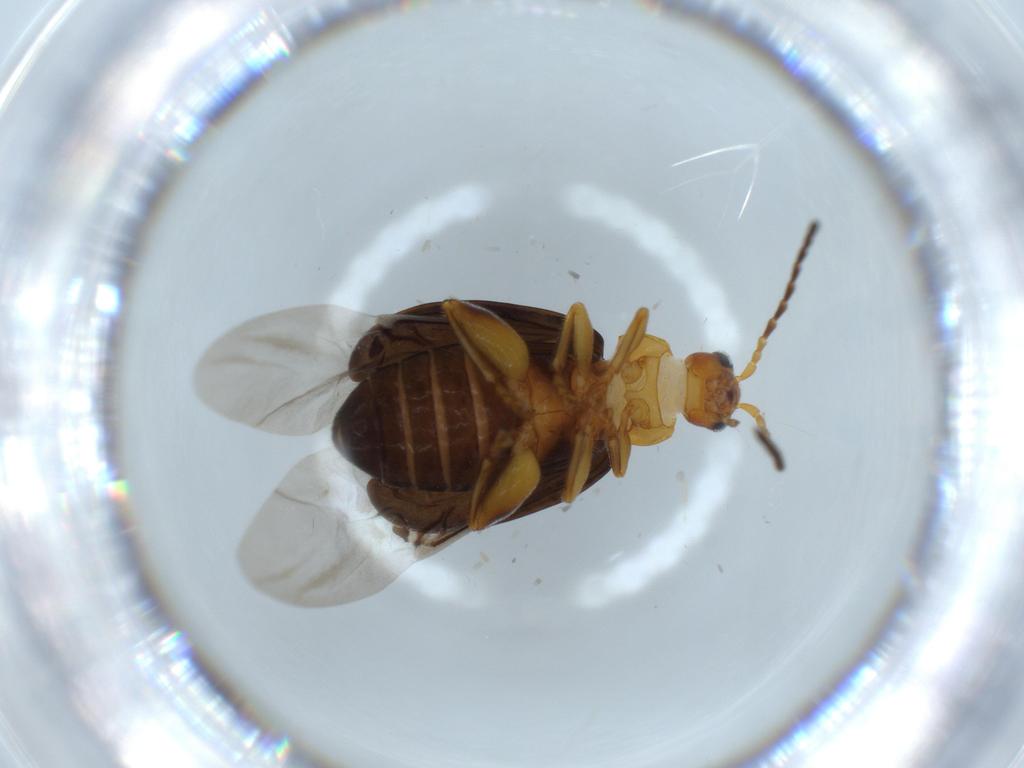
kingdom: Animalia
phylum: Arthropoda
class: Insecta
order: Coleoptera
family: Chrysomelidae
